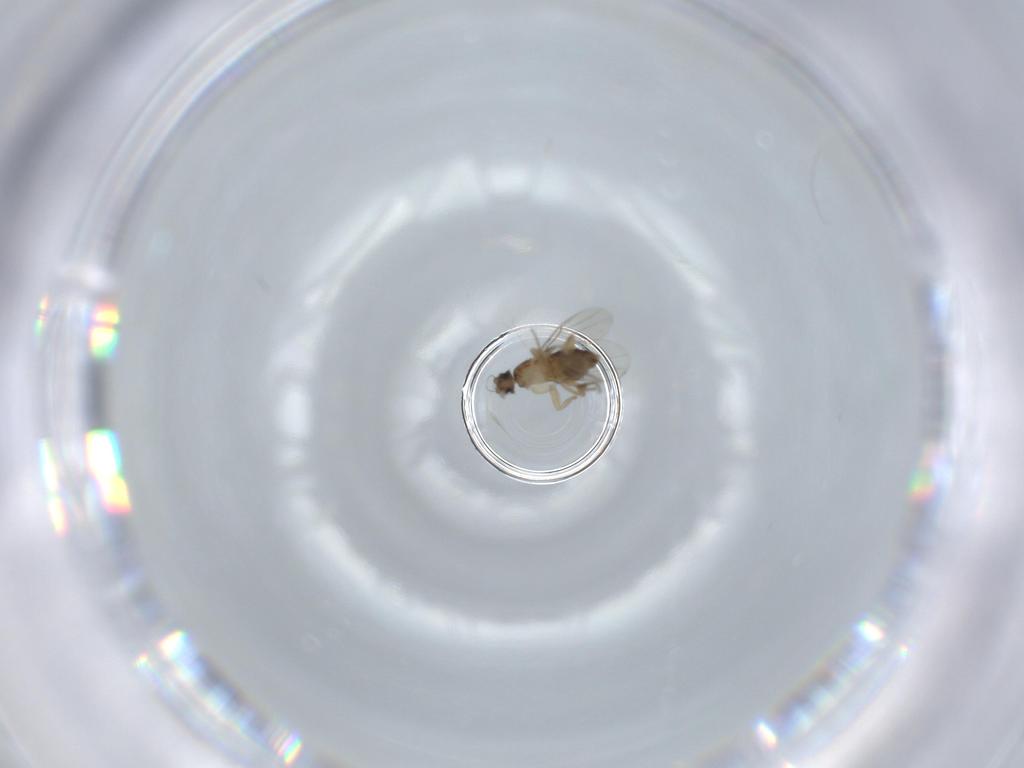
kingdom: Animalia
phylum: Arthropoda
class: Insecta
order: Diptera
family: Phoridae
